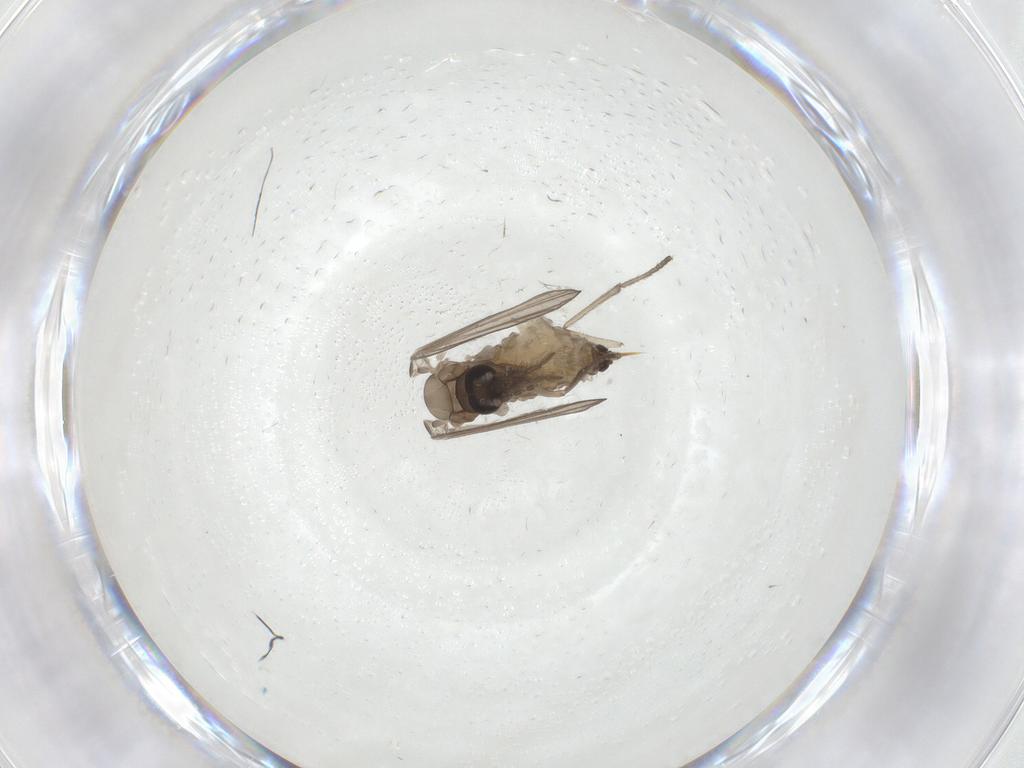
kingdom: Animalia
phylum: Arthropoda
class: Insecta
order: Diptera
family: Psychodidae
